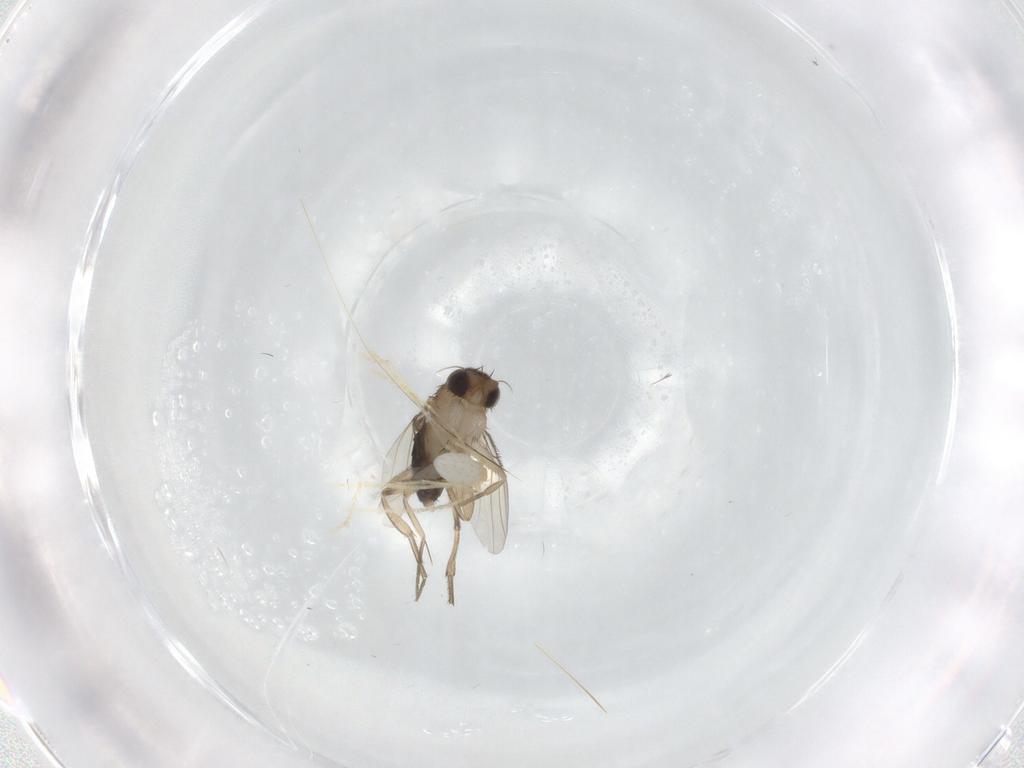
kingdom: Animalia
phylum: Arthropoda
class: Insecta
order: Diptera
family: Phoridae
